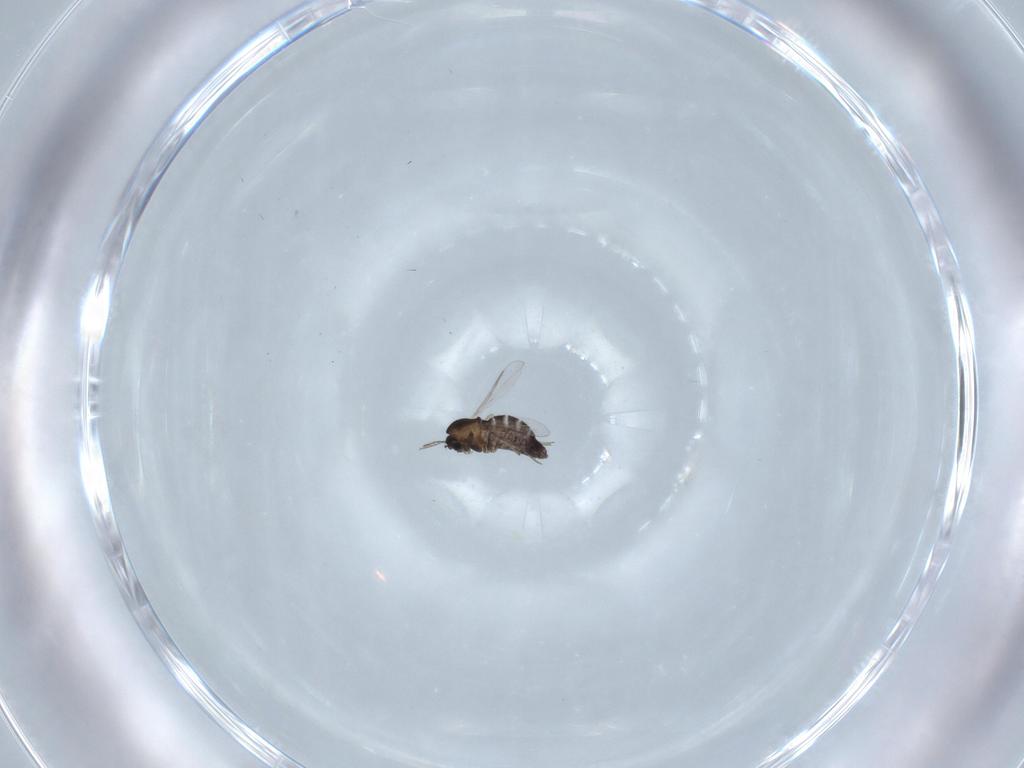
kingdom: Animalia
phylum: Arthropoda
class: Insecta
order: Diptera
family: Chironomidae
